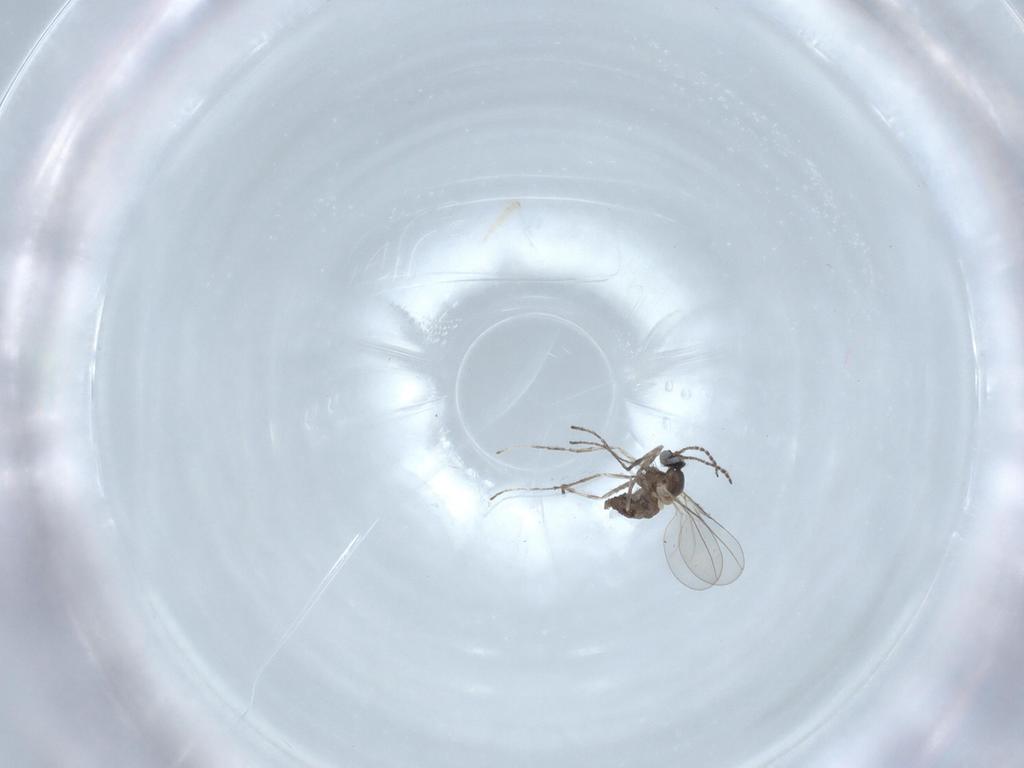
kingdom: Animalia
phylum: Arthropoda
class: Insecta
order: Diptera
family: Cecidomyiidae
